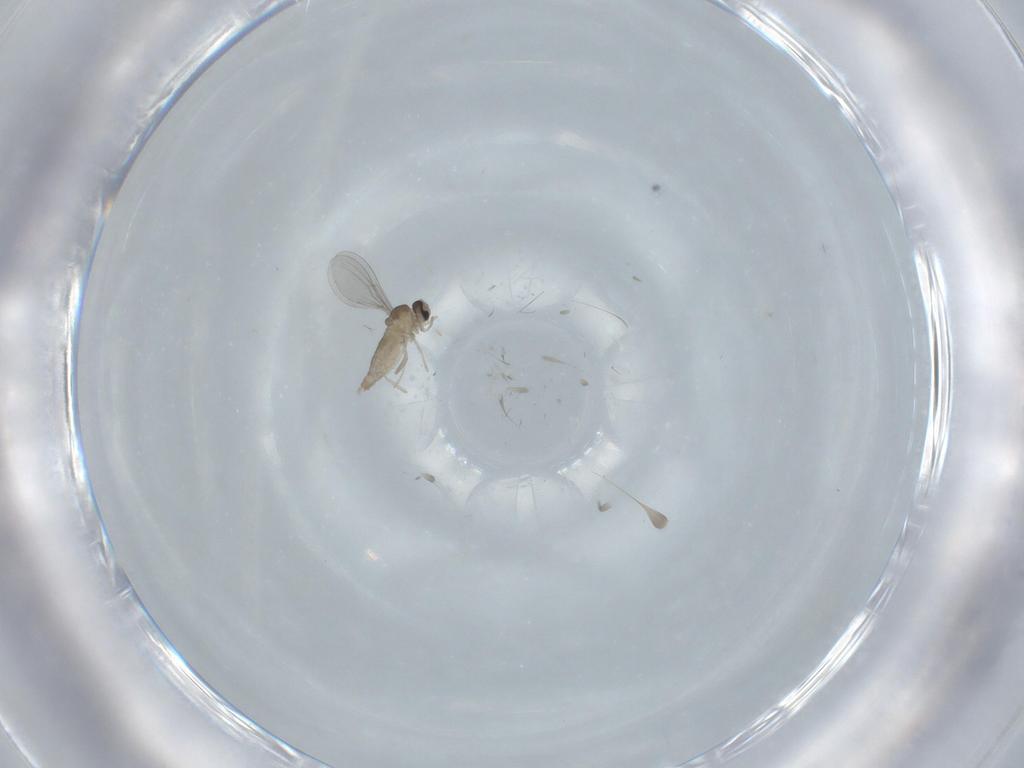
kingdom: Animalia
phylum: Arthropoda
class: Insecta
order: Diptera
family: Cecidomyiidae
